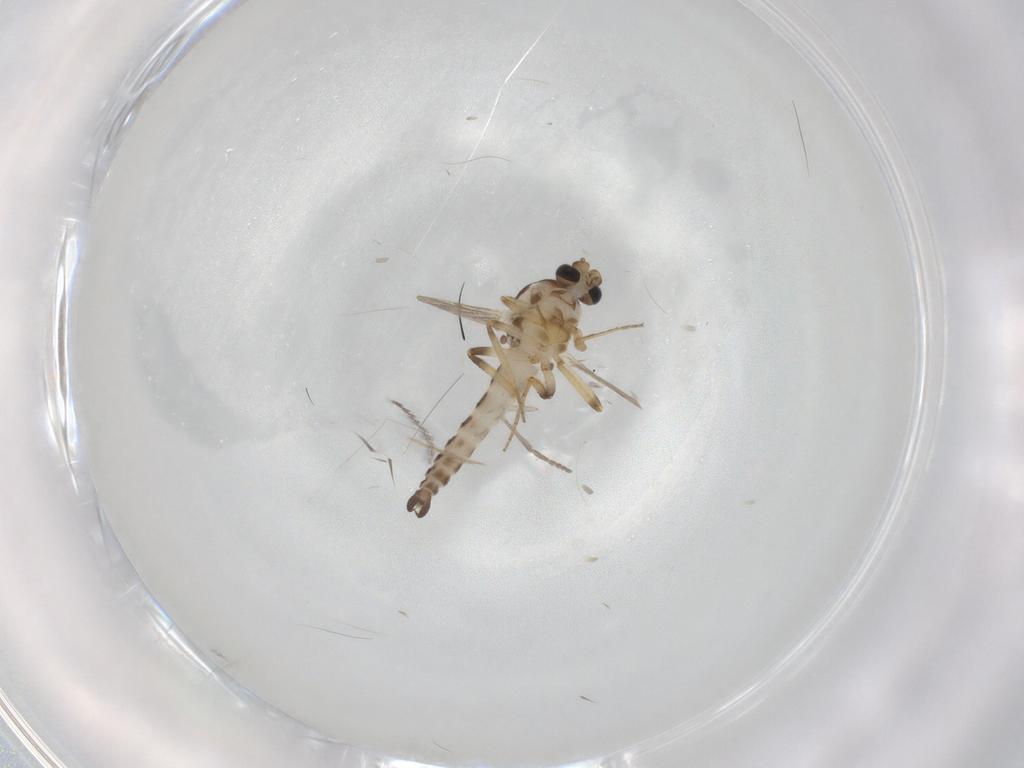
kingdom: Animalia
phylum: Arthropoda
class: Insecta
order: Diptera
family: Ceratopogonidae
